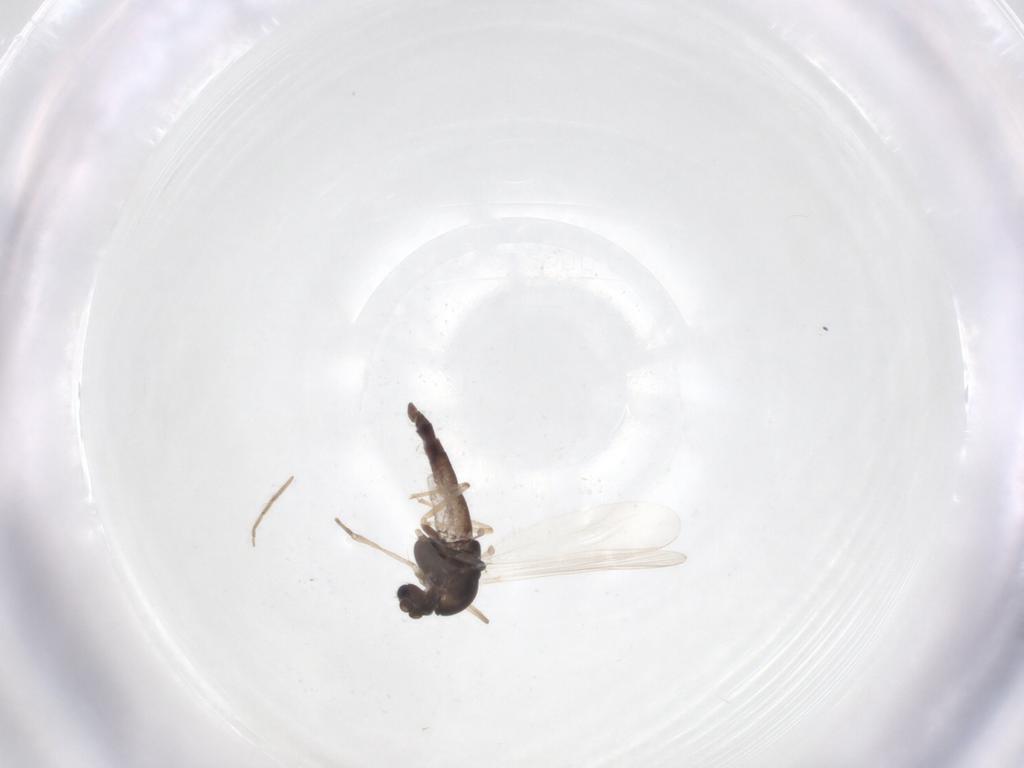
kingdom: Animalia
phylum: Arthropoda
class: Insecta
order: Diptera
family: Chironomidae
